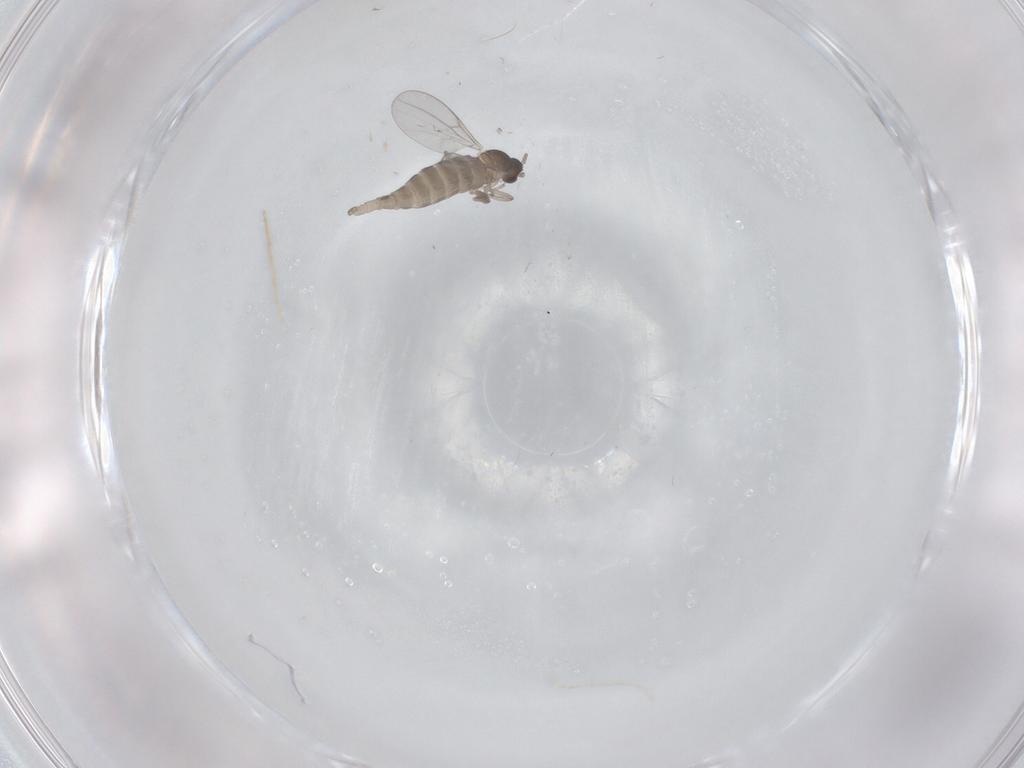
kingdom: Animalia
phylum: Arthropoda
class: Insecta
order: Diptera
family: Cecidomyiidae
